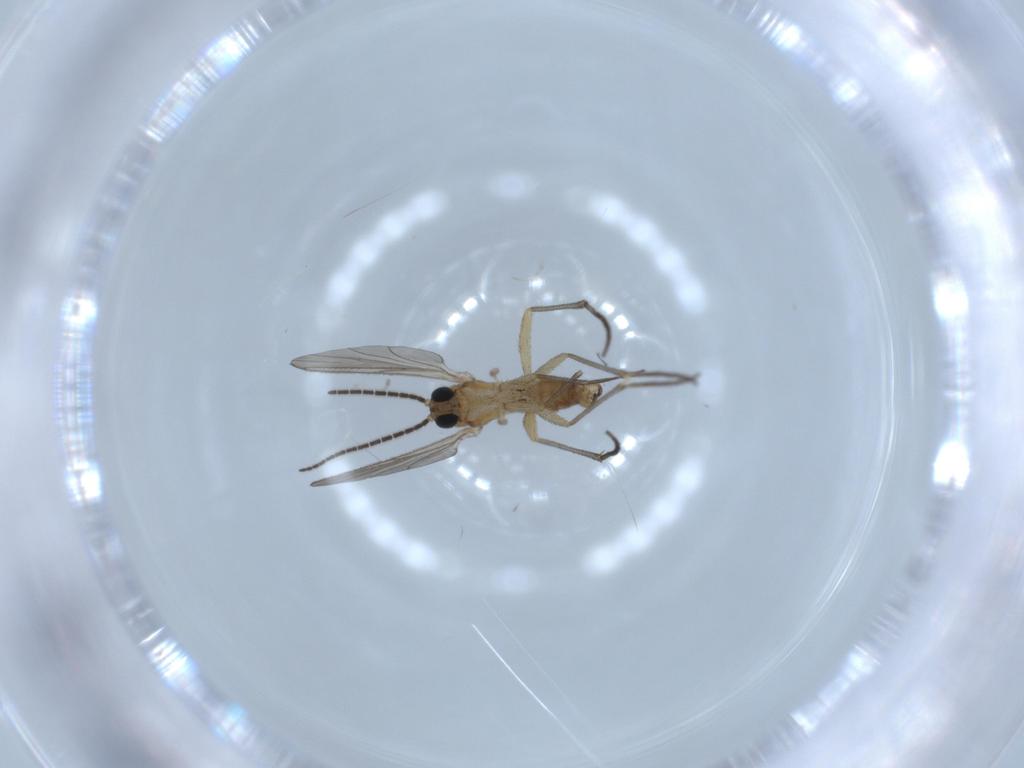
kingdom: Animalia
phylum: Arthropoda
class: Insecta
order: Diptera
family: Sciaridae
